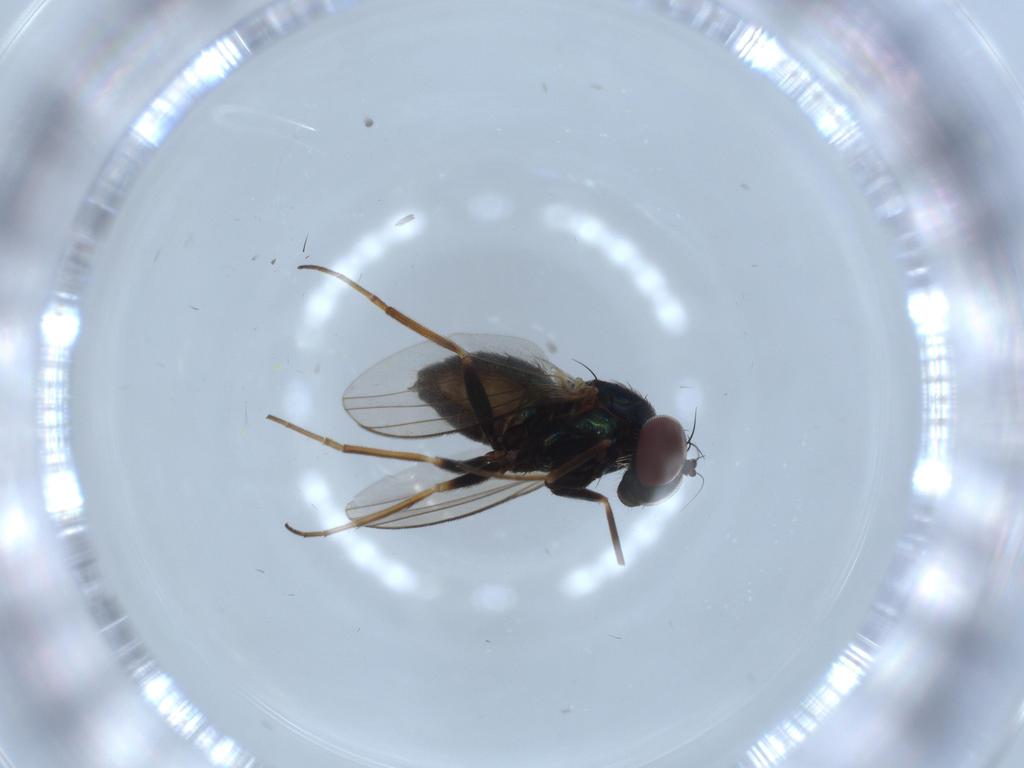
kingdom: Animalia
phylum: Arthropoda
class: Insecta
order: Diptera
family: Dolichopodidae
